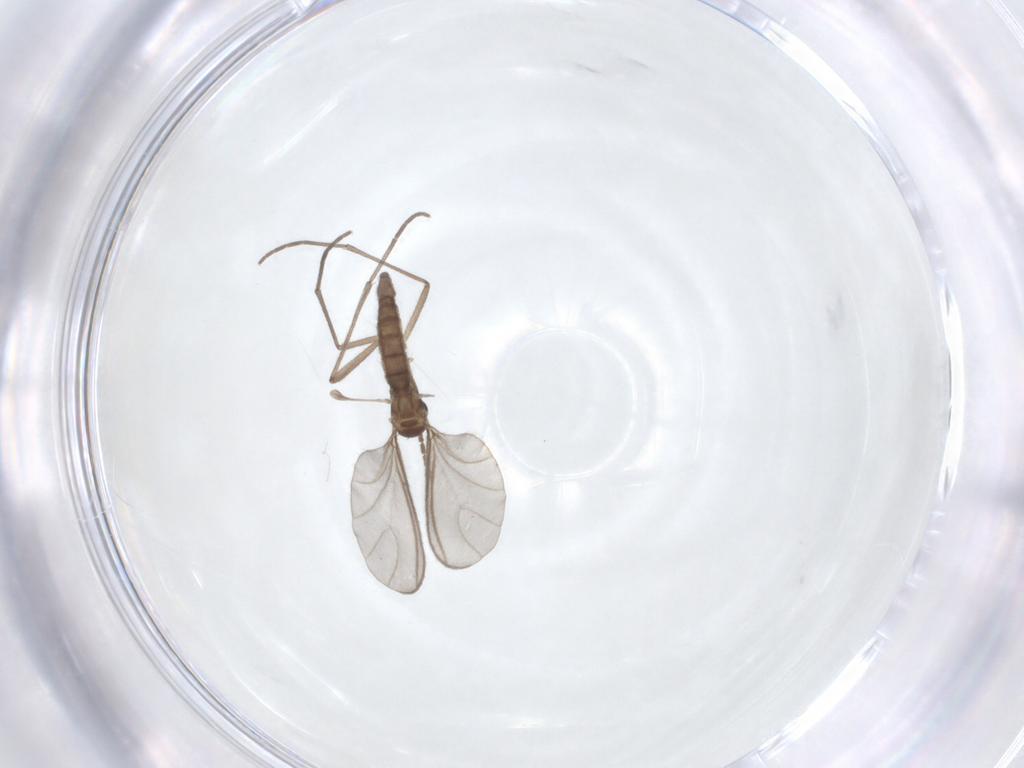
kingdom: Animalia
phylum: Arthropoda
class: Insecta
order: Diptera
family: Sciaridae
